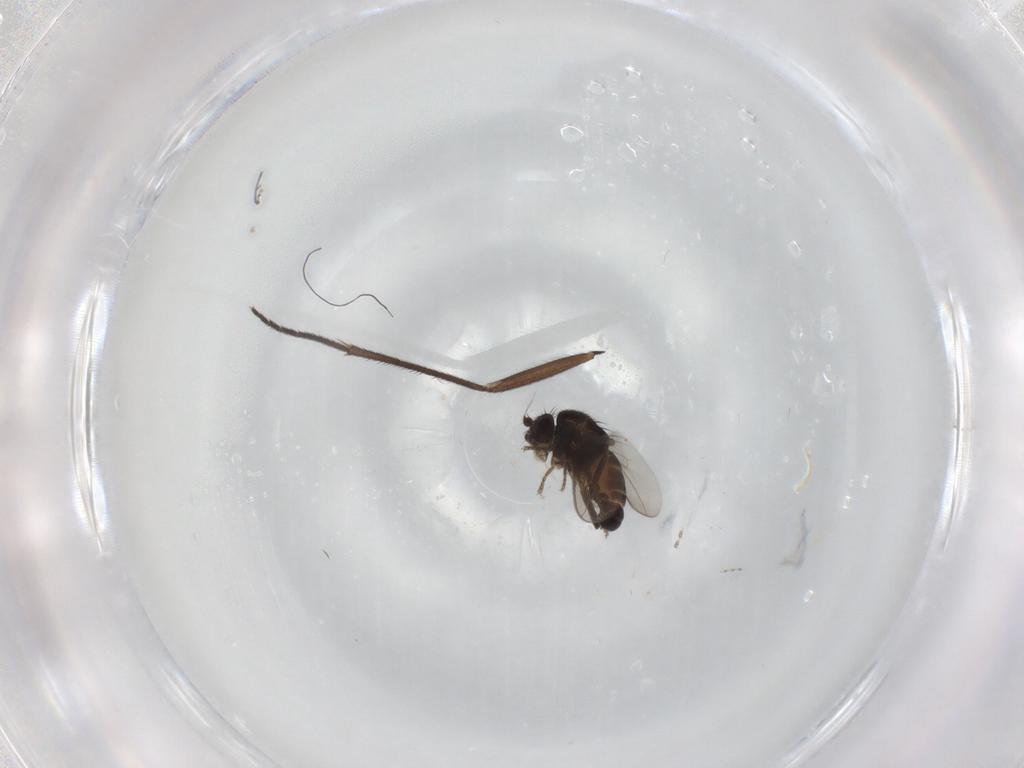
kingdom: Animalia
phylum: Arthropoda
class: Insecta
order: Diptera
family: Sphaeroceridae
